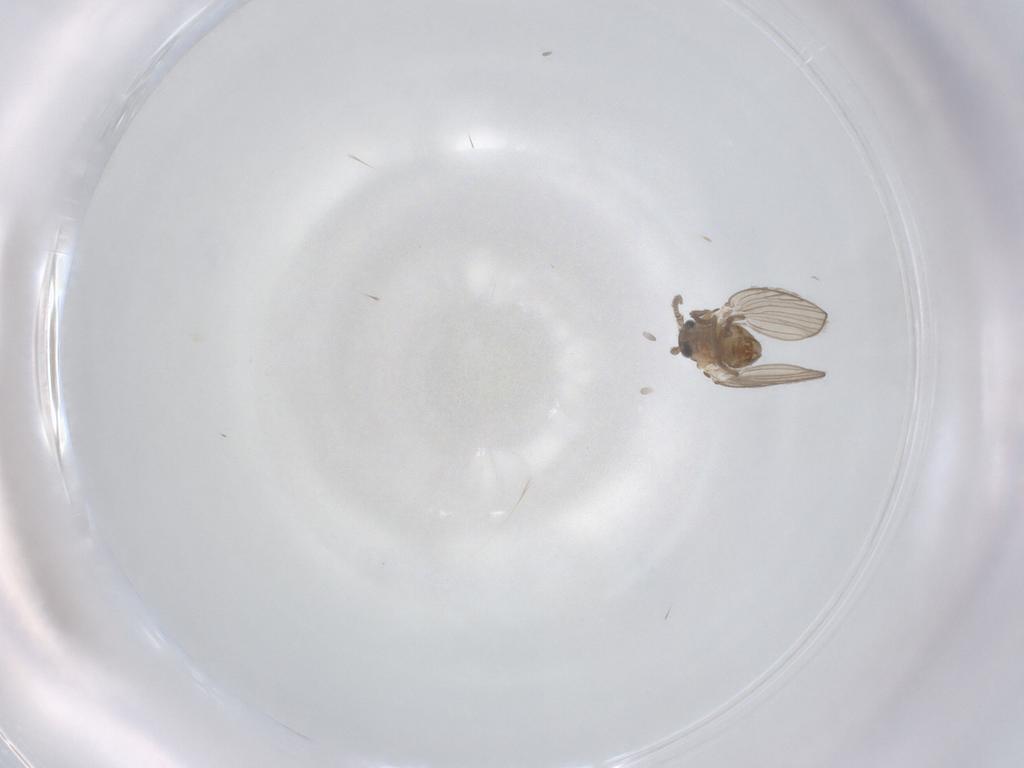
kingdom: Animalia
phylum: Arthropoda
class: Insecta
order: Diptera
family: Psychodidae
